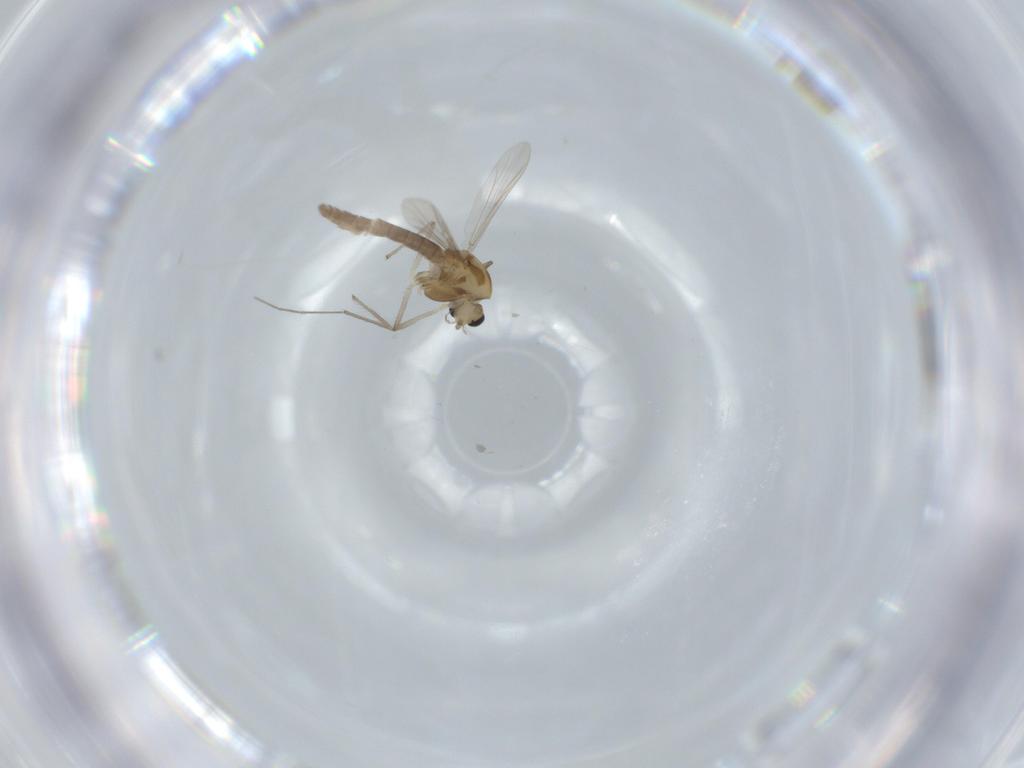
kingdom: Animalia
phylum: Arthropoda
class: Insecta
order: Diptera
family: Chironomidae
